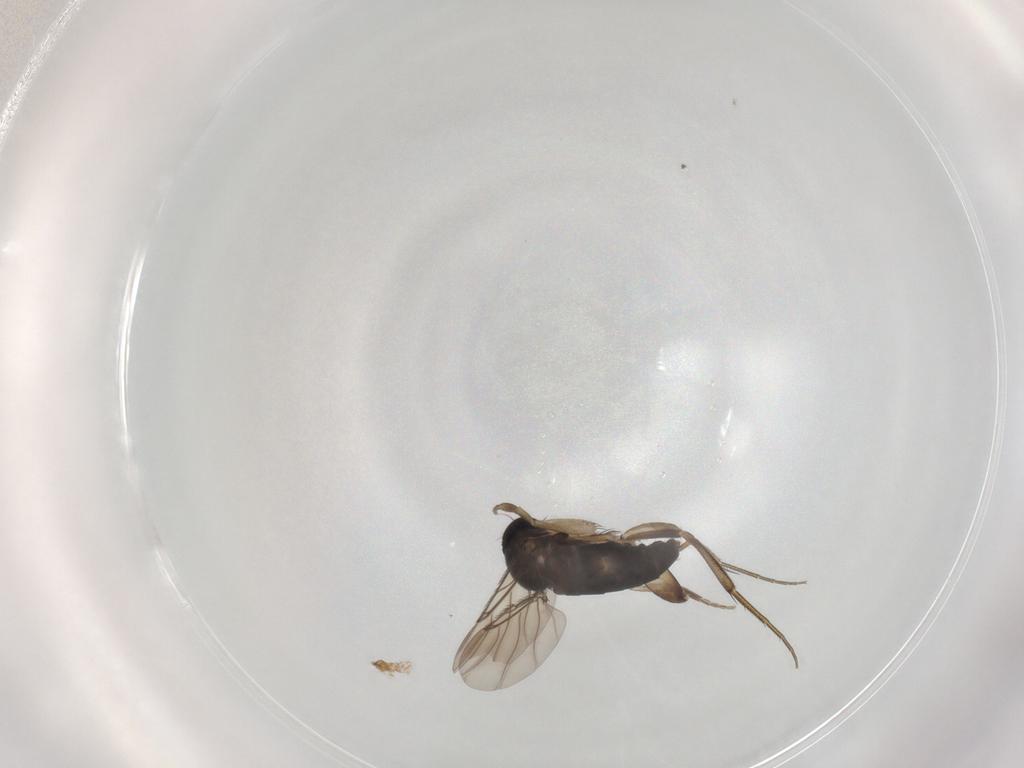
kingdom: Animalia
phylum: Arthropoda
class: Insecta
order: Diptera
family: Phoridae
